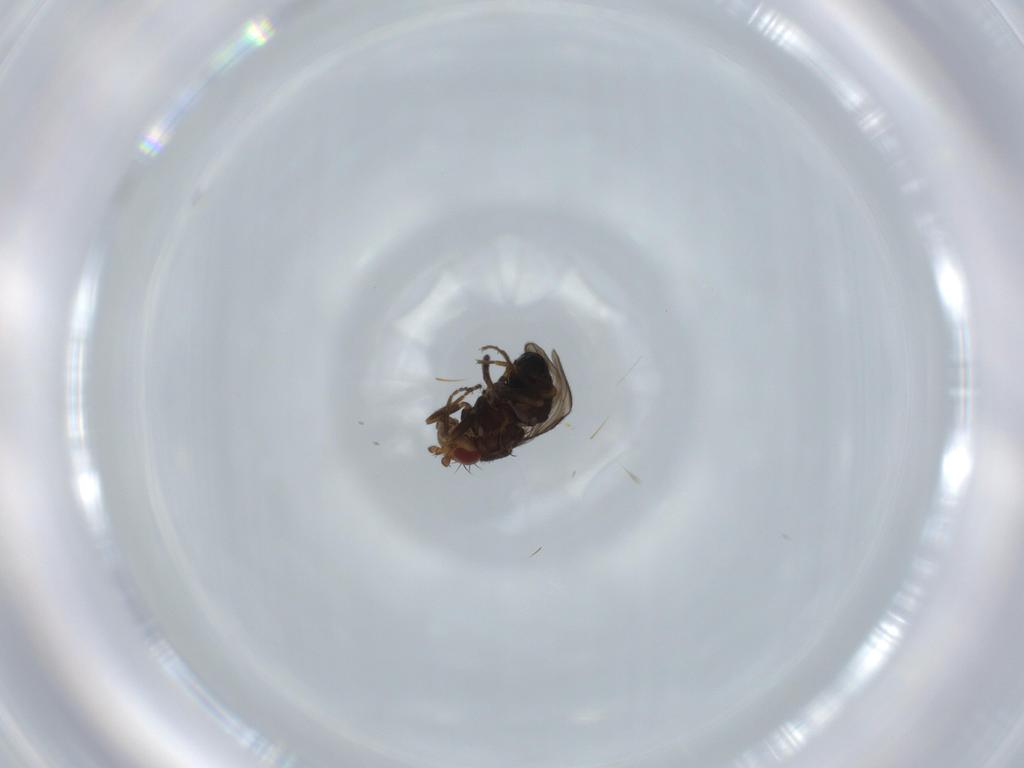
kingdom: Animalia
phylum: Arthropoda
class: Insecta
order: Diptera
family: Sphaeroceridae
